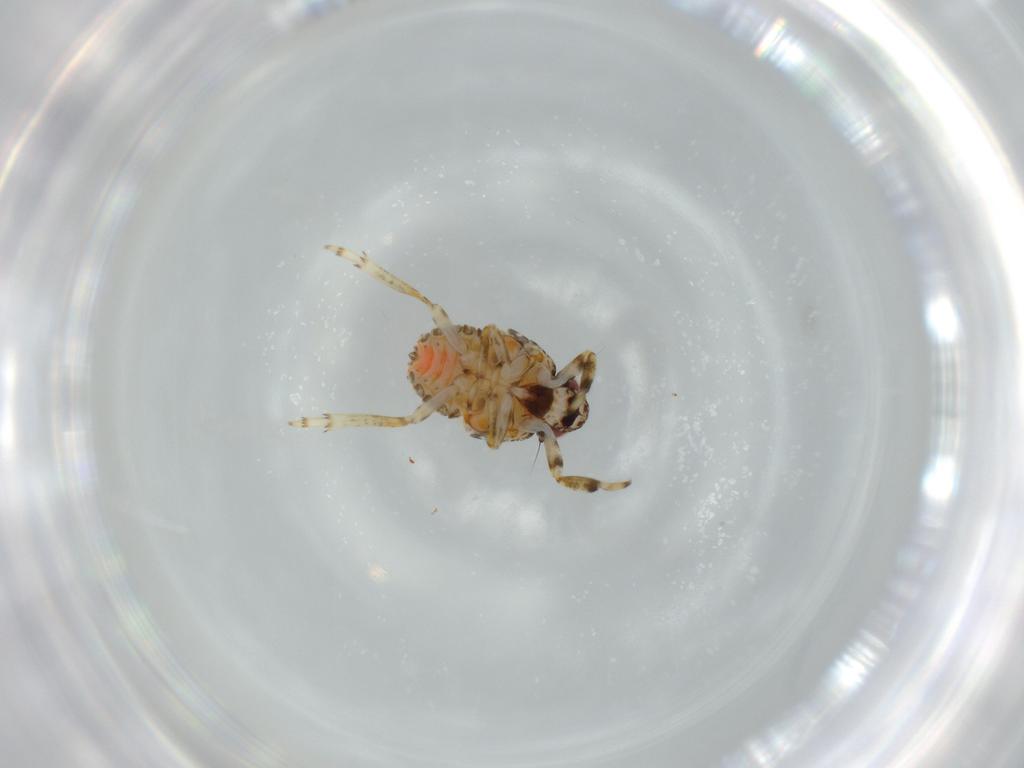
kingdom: Animalia
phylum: Arthropoda
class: Insecta
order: Hemiptera
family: Issidae
